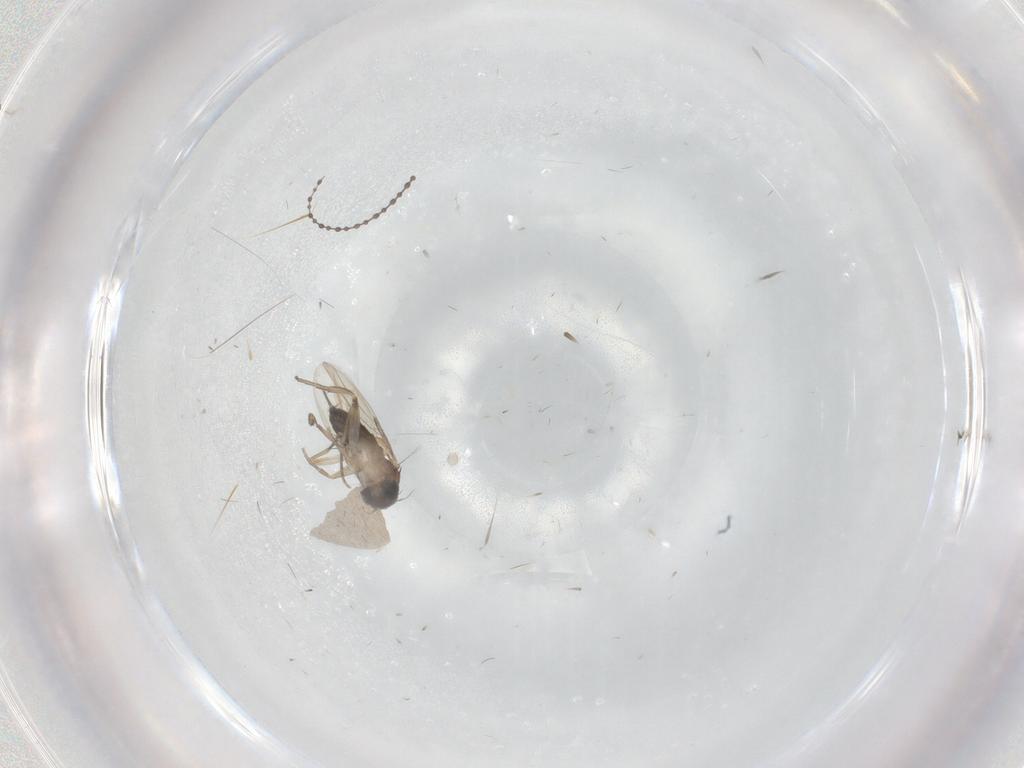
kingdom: Animalia
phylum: Arthropoda
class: Insecta
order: Diptera
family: Phoridae
